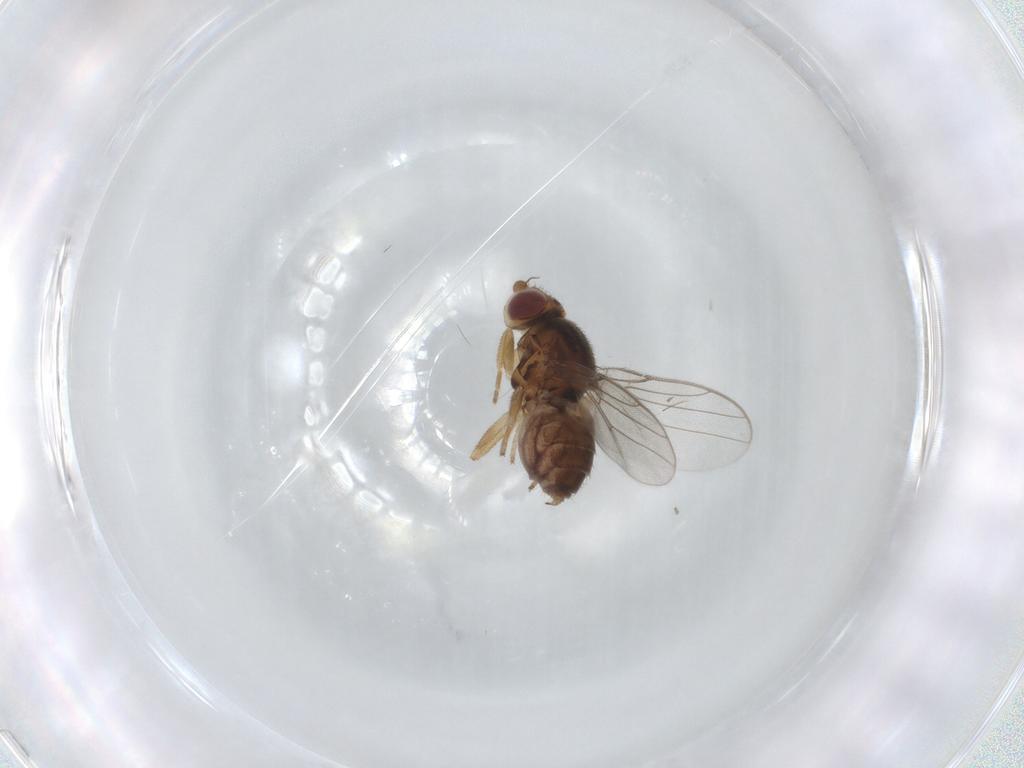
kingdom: Animalia
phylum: Arthropoda
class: Insecta
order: Diptera
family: Chloropidae
